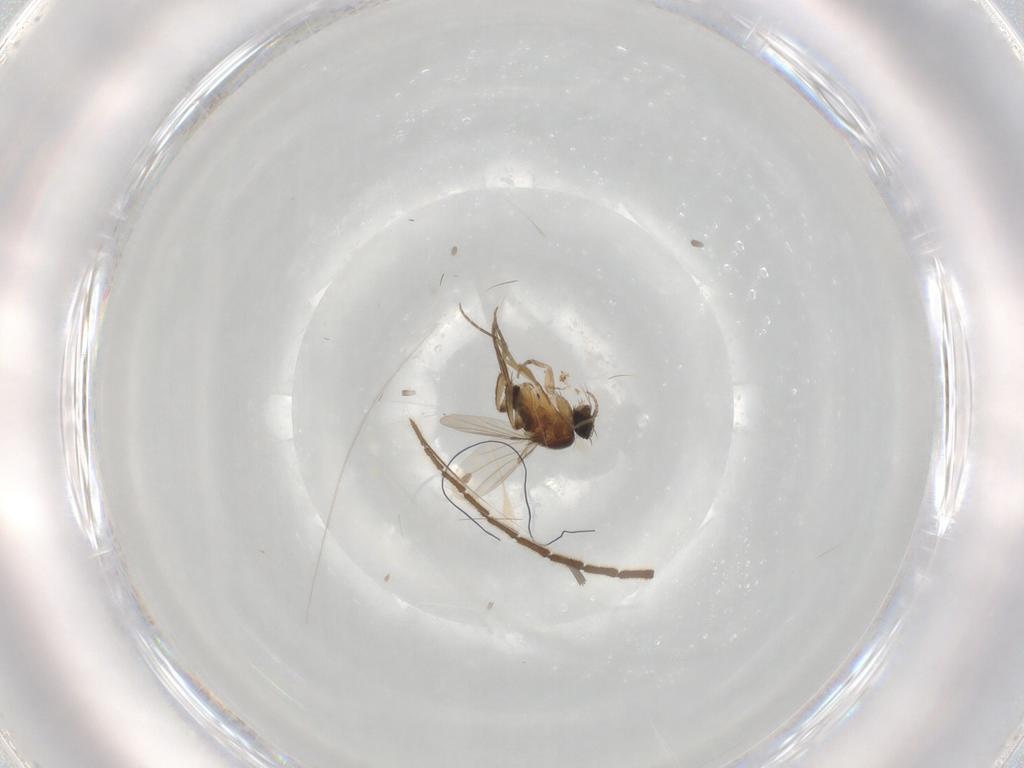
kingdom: Animalia
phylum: Arthropoda
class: Insecta
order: Diptera
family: Phoridae
